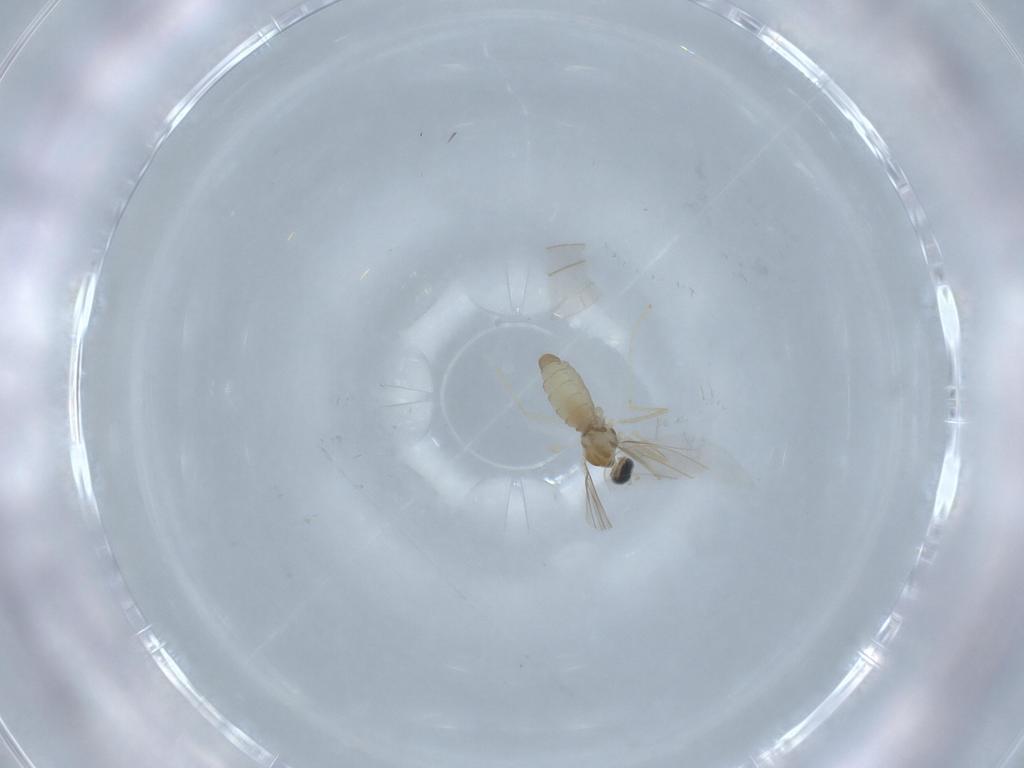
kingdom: Animalia
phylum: Arthropoda
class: Insecta
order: Diptera
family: Cecidomyiidae
